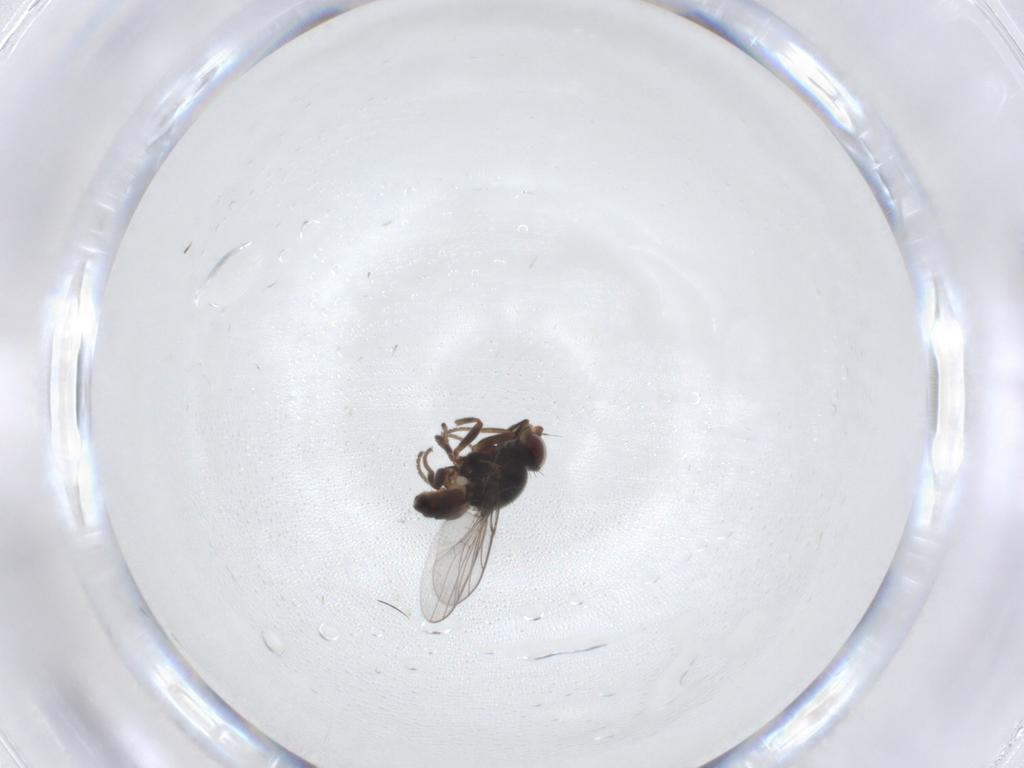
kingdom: Animalia
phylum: Arthropoda
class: Insecta
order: Diptera
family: Chloropidae
